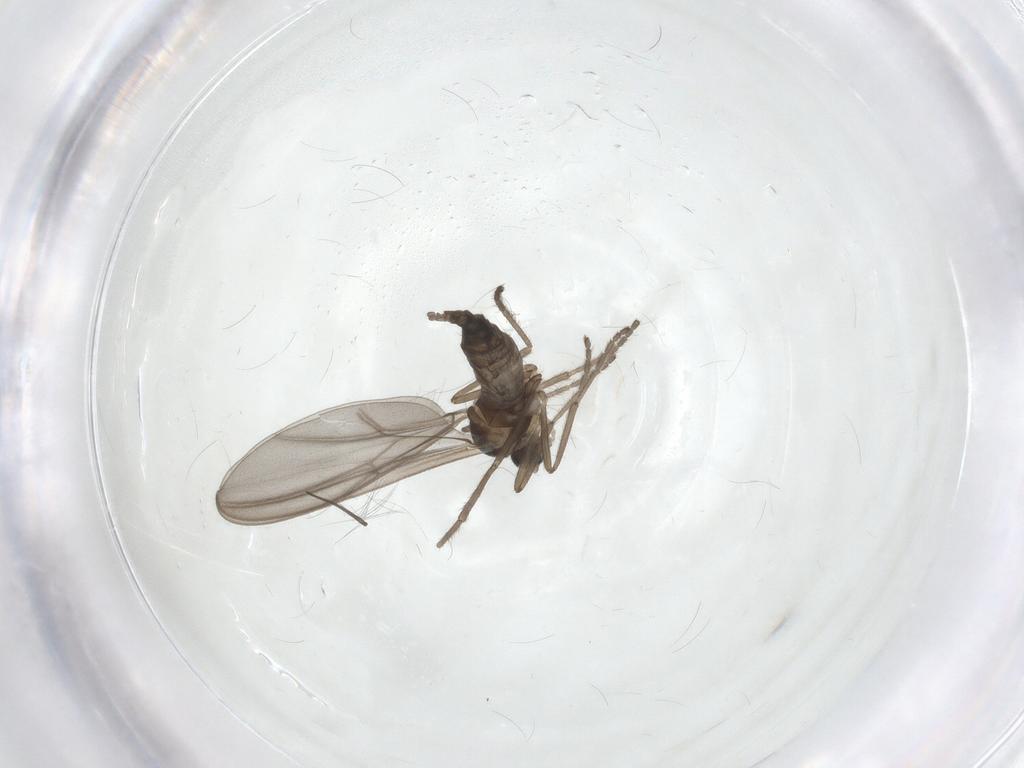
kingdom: Animalia
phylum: Arthropoda
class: Insecta
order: Diptera
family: Cecidomyiidae
